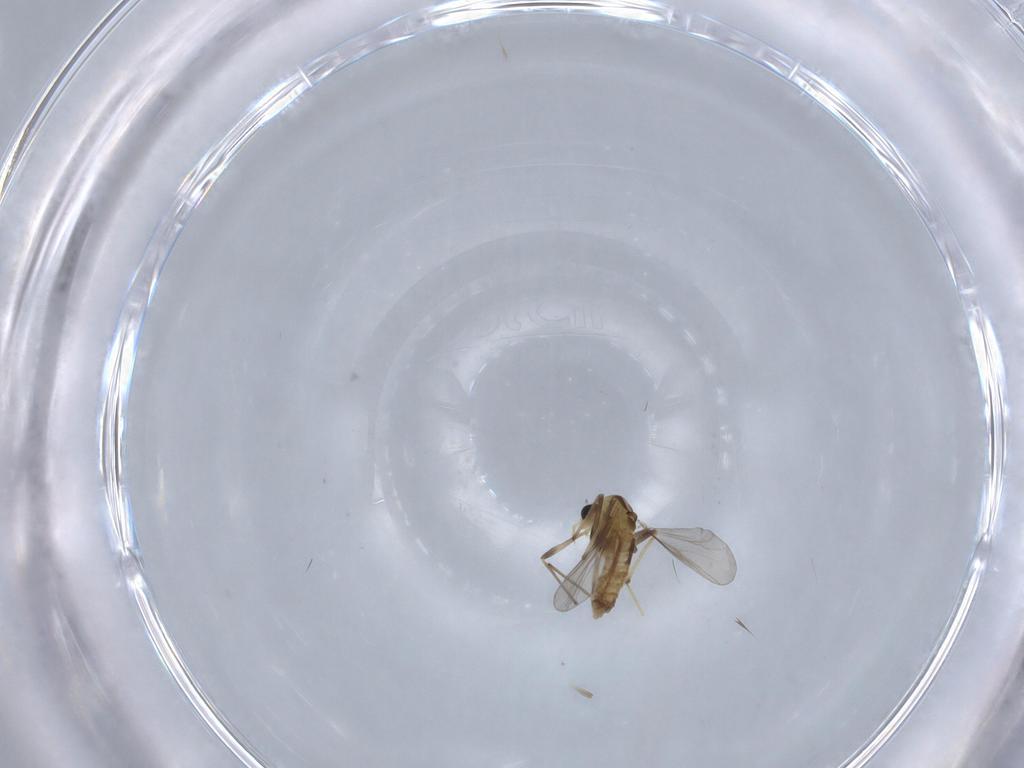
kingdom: Animalia
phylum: Arthropoda
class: Insecta
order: Diptera
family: Chironomidae
